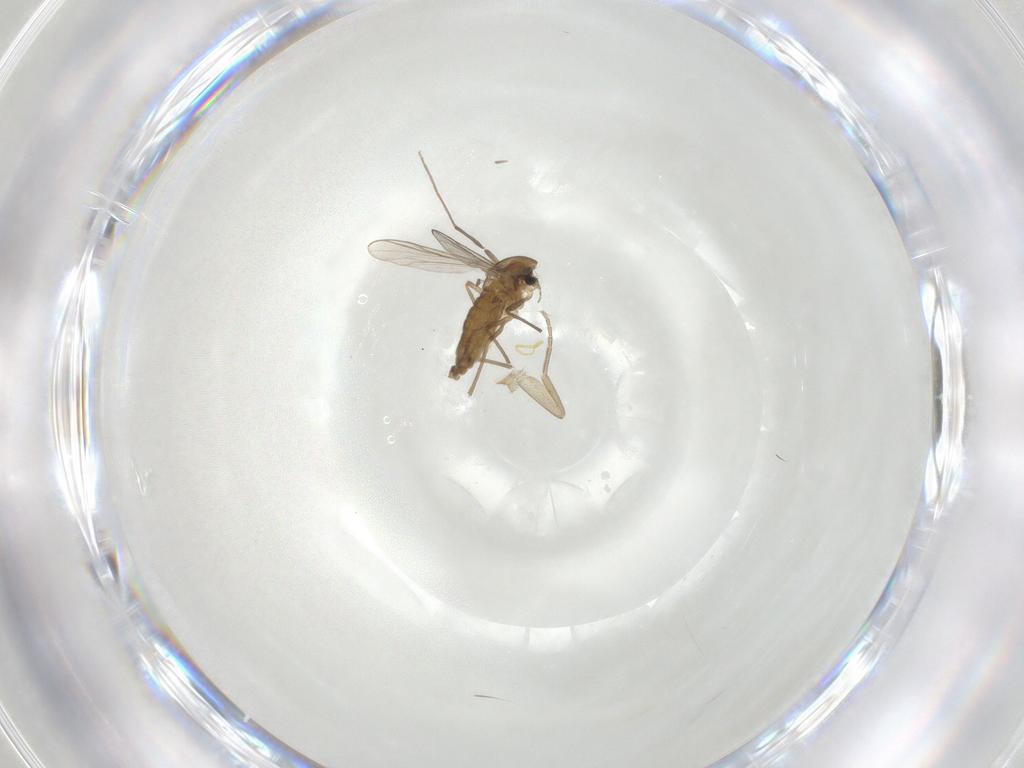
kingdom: Animalia
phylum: Arthropoda
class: Insecta
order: Diptera
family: Chironomidae
